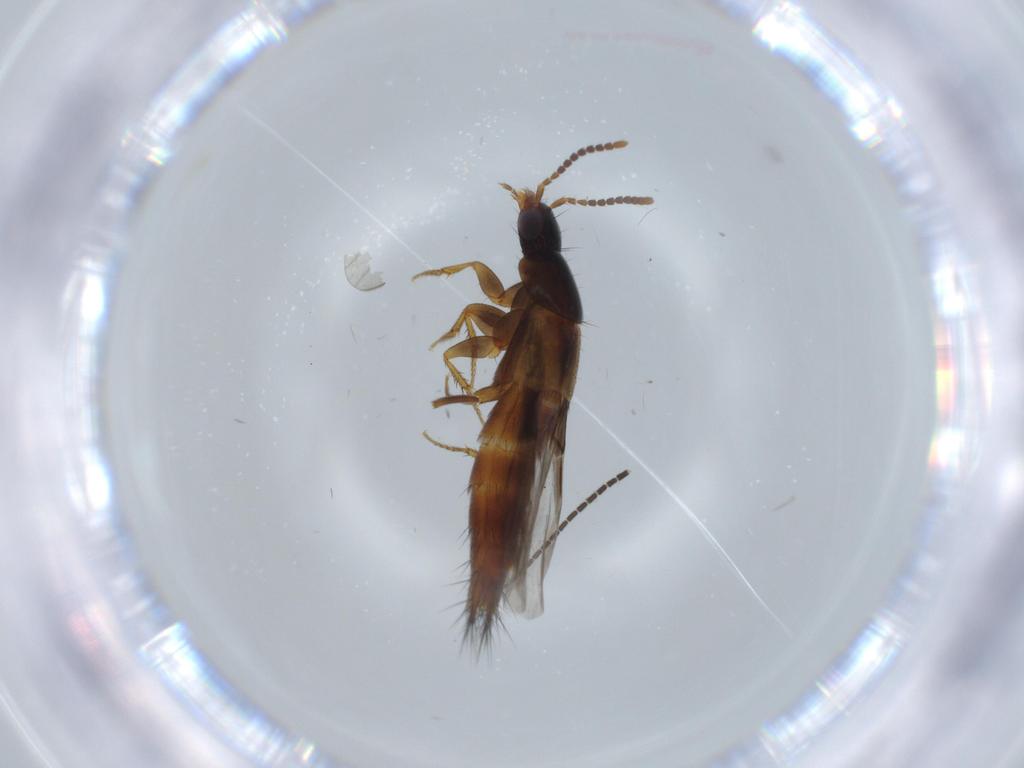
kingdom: Animalia
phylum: Arthropoda
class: Insecta
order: Coleoptera
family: Staphylinidae
